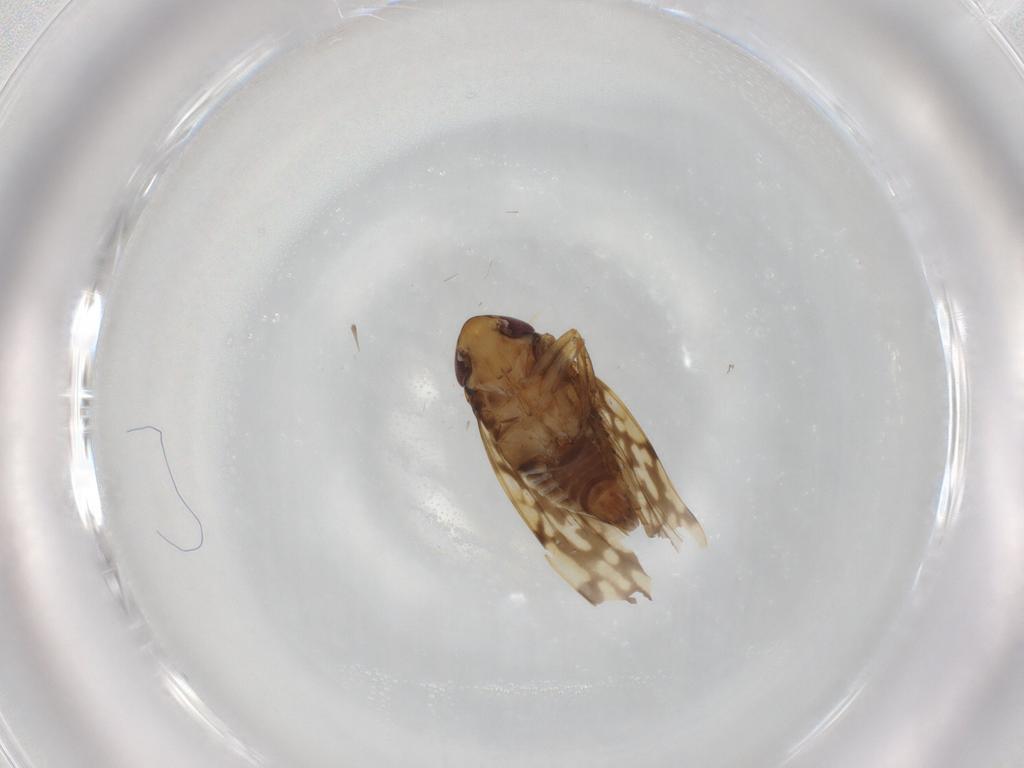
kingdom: Animalia
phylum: Arthropoda
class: Insecta
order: Hemiptera
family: Cicadellidae
